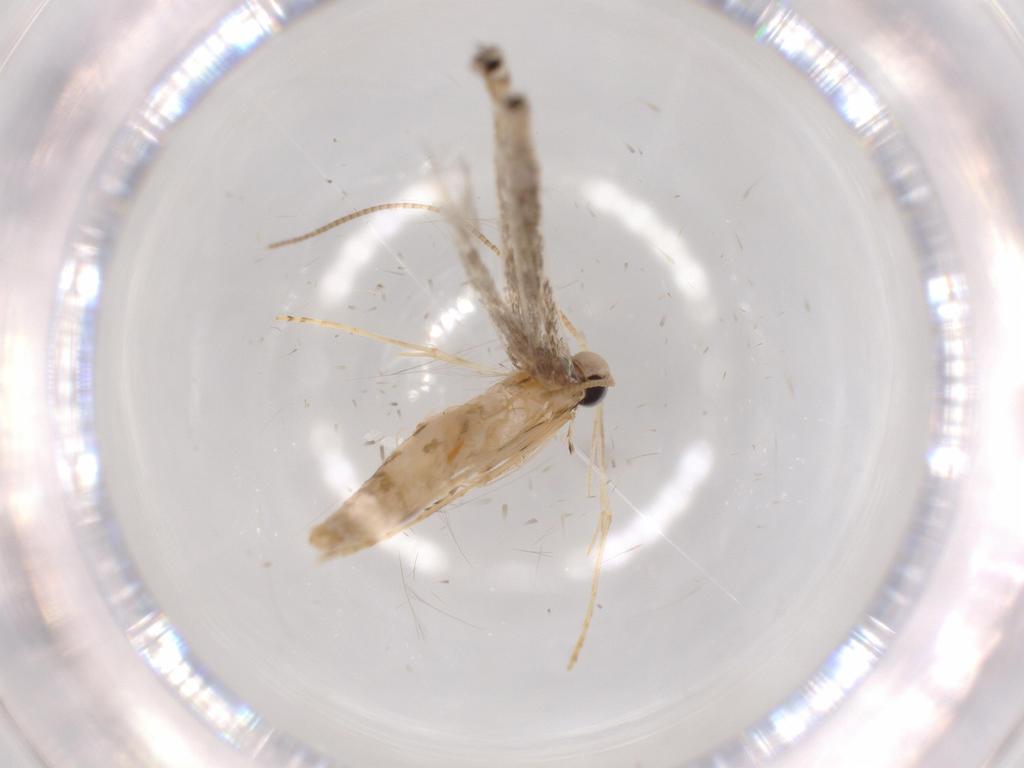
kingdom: Animalia
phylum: Arthropoda
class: Insecta
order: Lepidoptera
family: Gracillariidae
